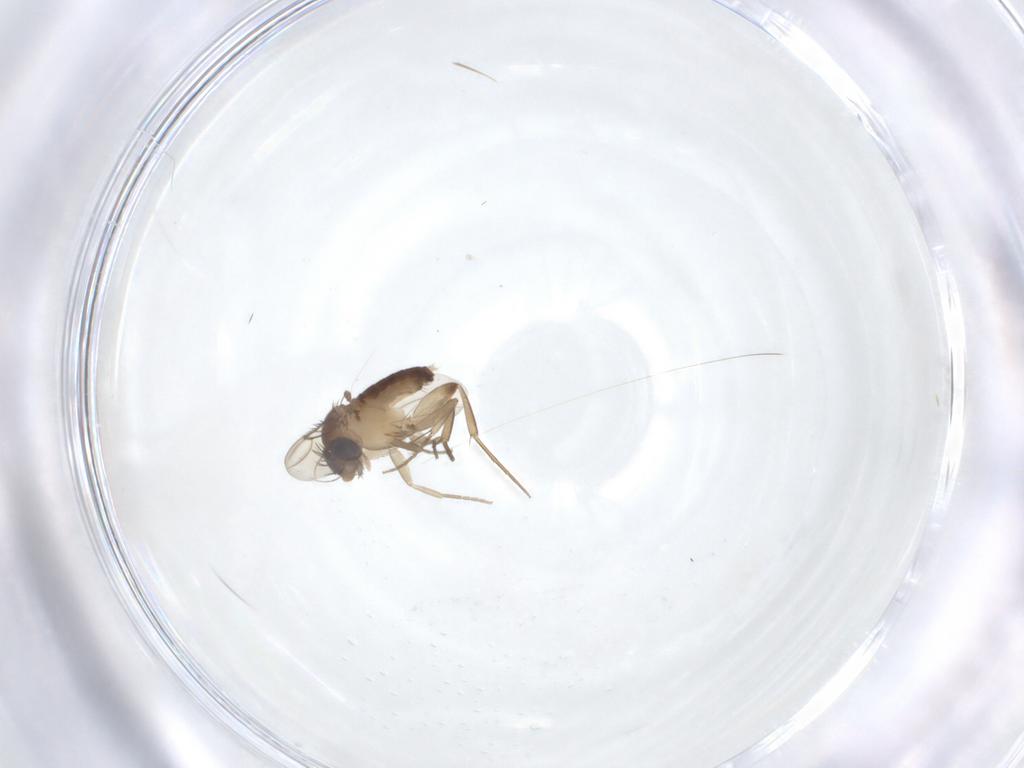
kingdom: Animalia
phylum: Arthropoda
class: Insecta
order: Diptera
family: Phoridae
